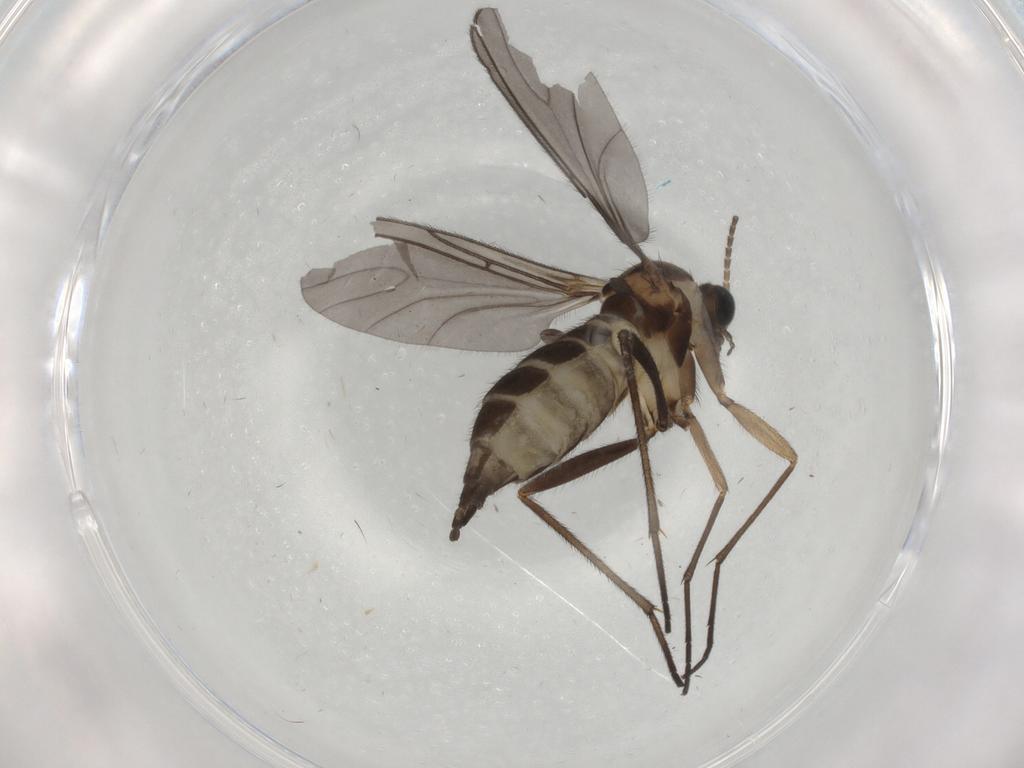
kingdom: Animalia
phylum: Arthropoda
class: Insecta
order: Diptera
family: Sciaridae
